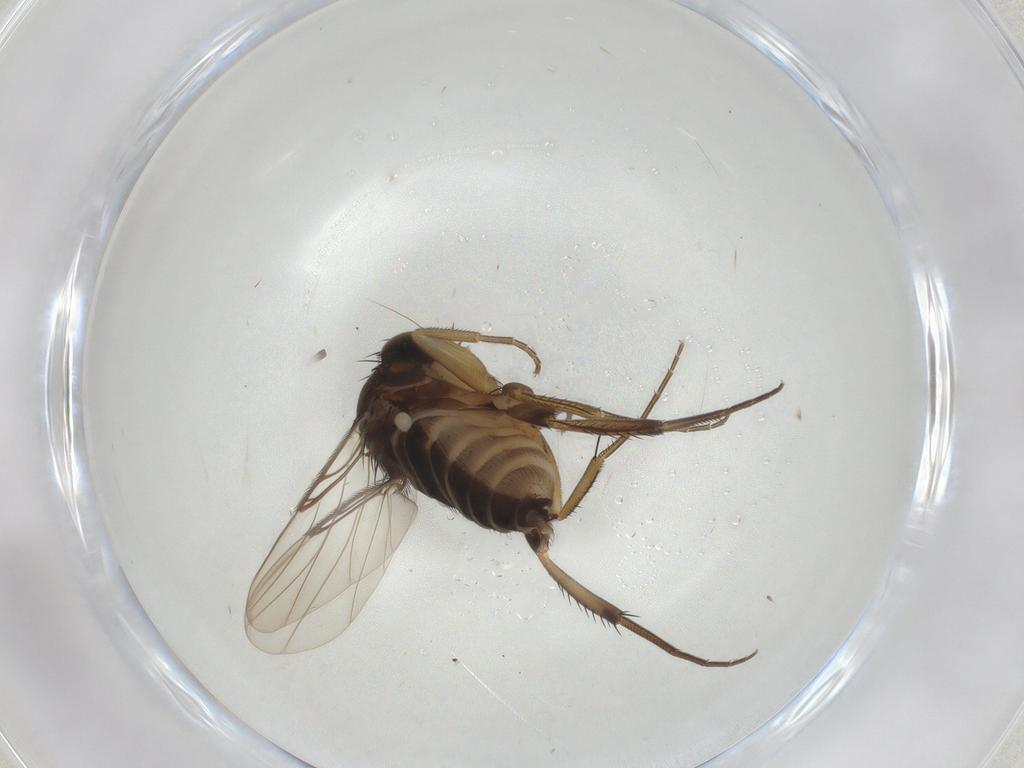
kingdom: Animalia
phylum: Arthropoda
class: Insecta
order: Diptera
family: Phoridae
